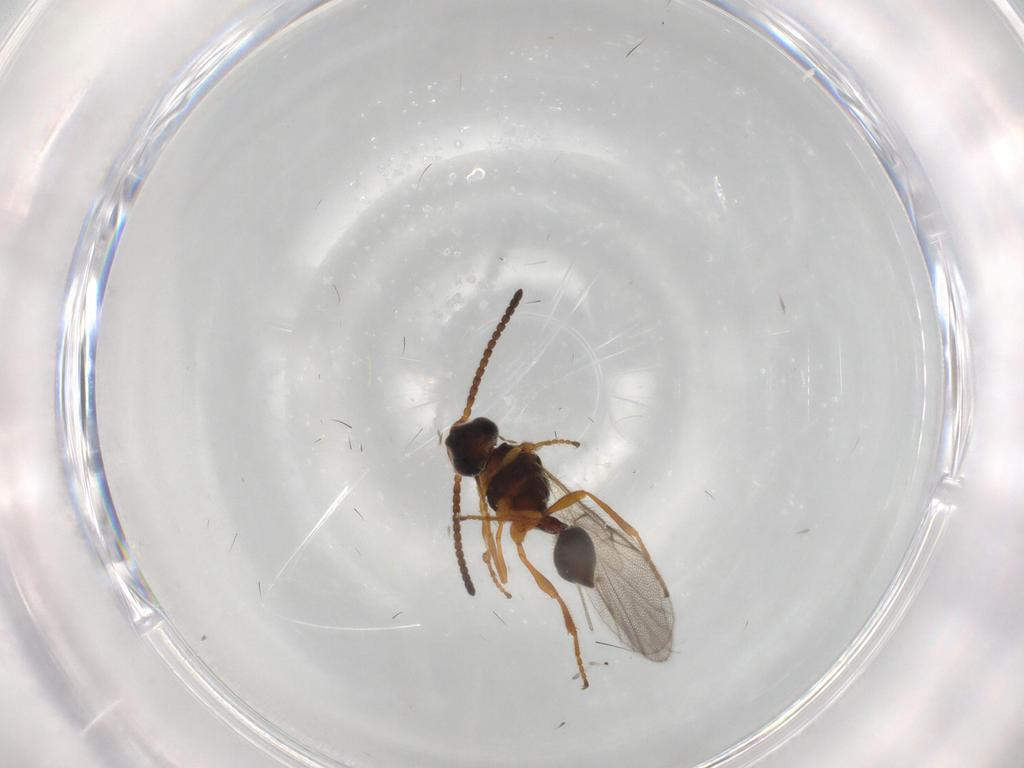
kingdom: Animalia
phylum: Arthropoda
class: Insecta
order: Hymenoptera
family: Diapriidae
